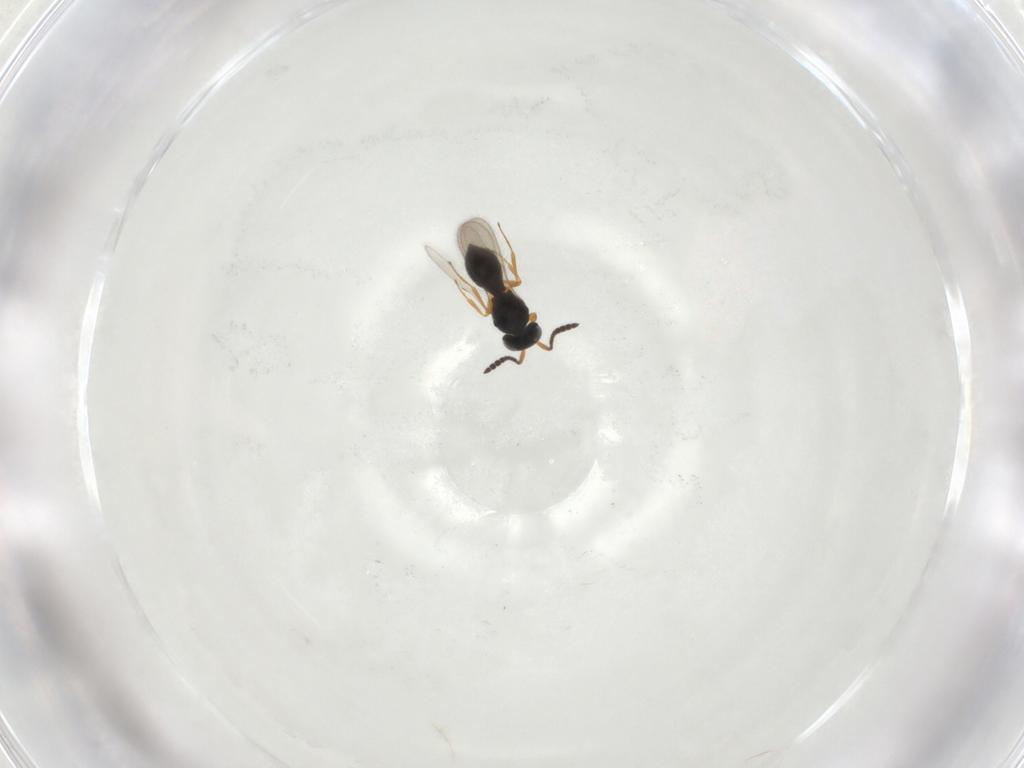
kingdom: Animalia
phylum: Arthropoda
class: Insecta
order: Hymenoptera
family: Scelionidae
